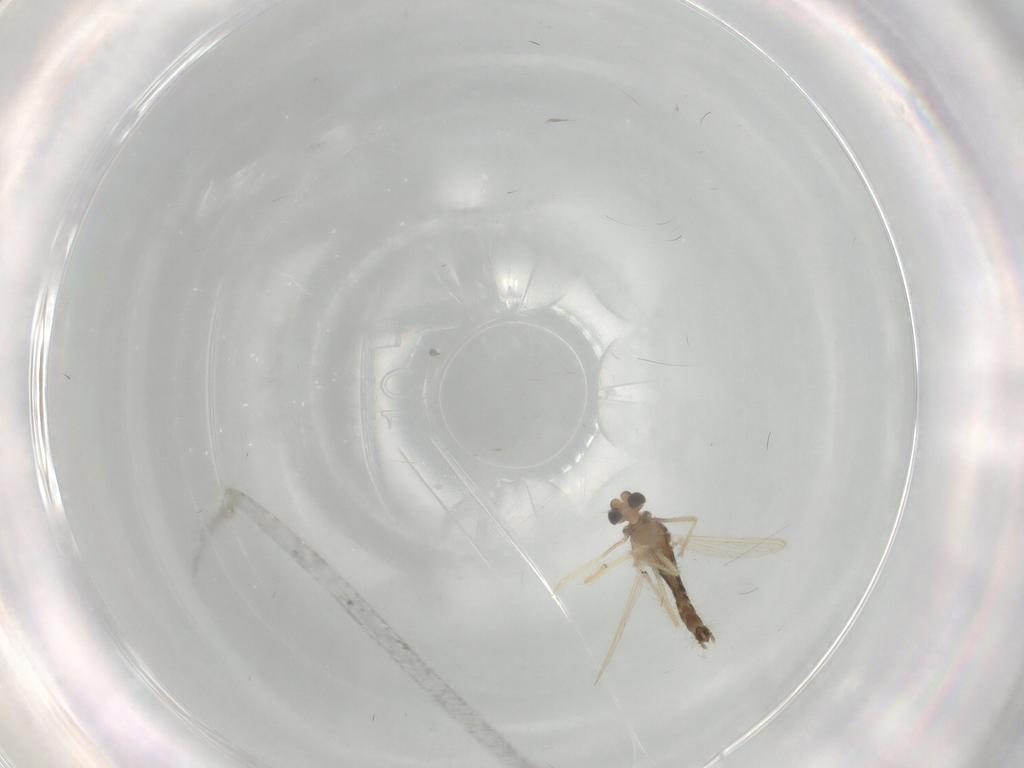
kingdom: Animalia
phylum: Arthropoda
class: Insecta
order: Diptera
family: Chironomidae
